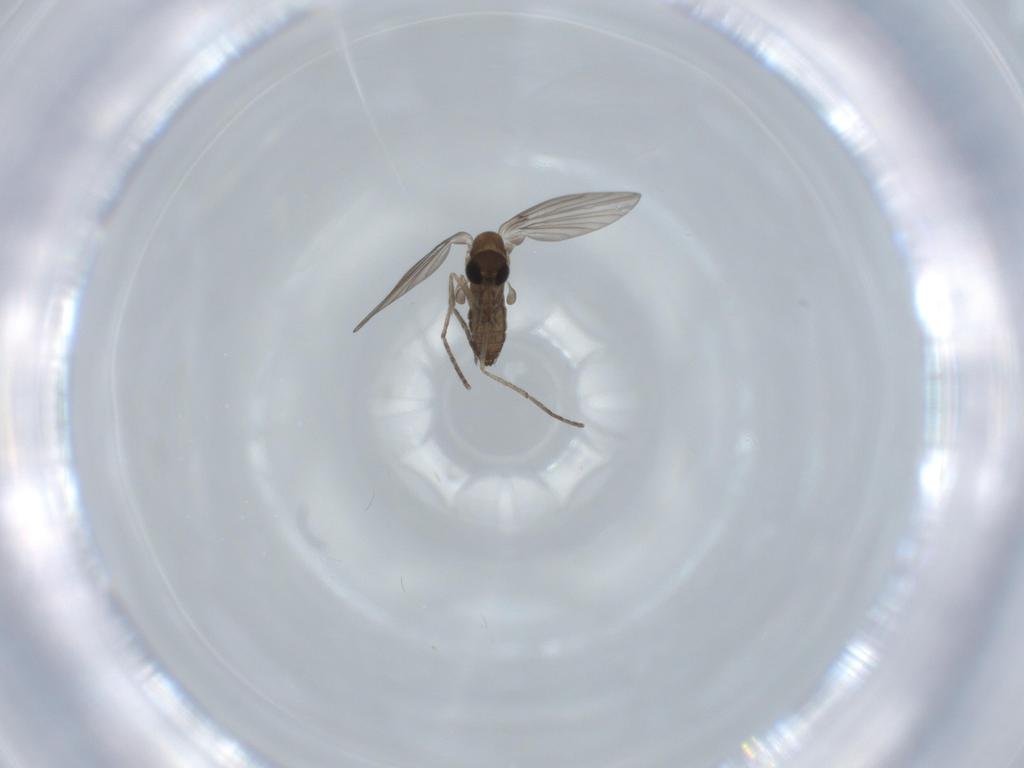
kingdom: Animalia
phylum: Arthropoda
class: Insecta
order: Diptera
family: Psychodidae
